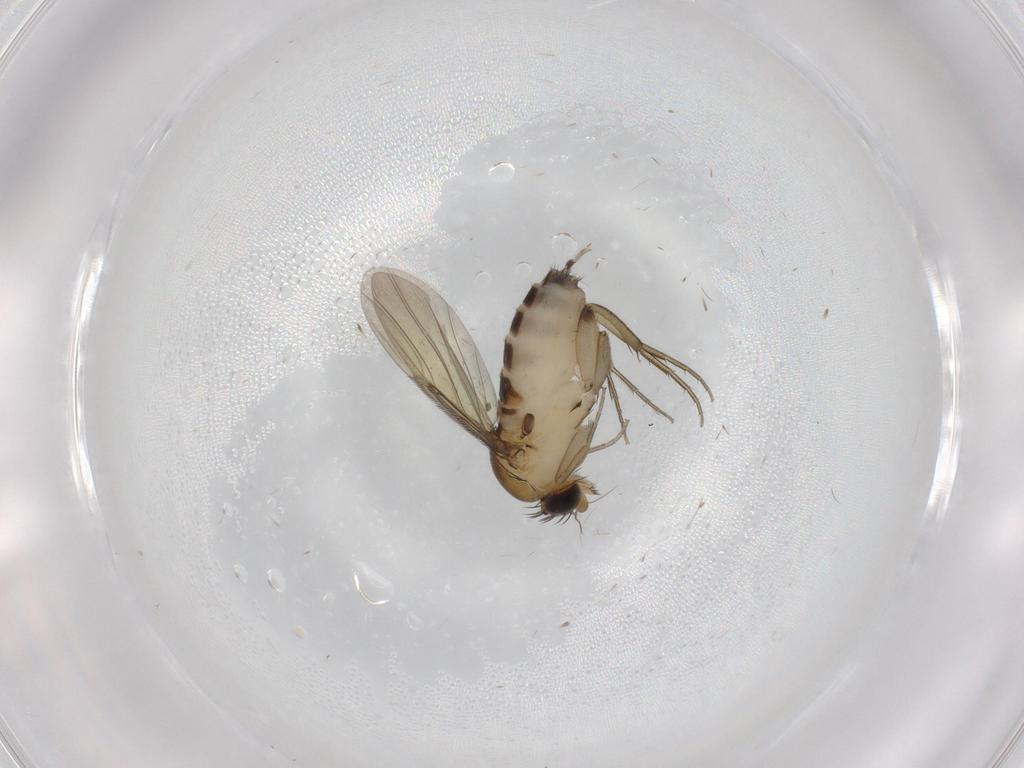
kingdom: Animalia
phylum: Arthropoda
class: Insecta
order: Diptera
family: Phoridae
